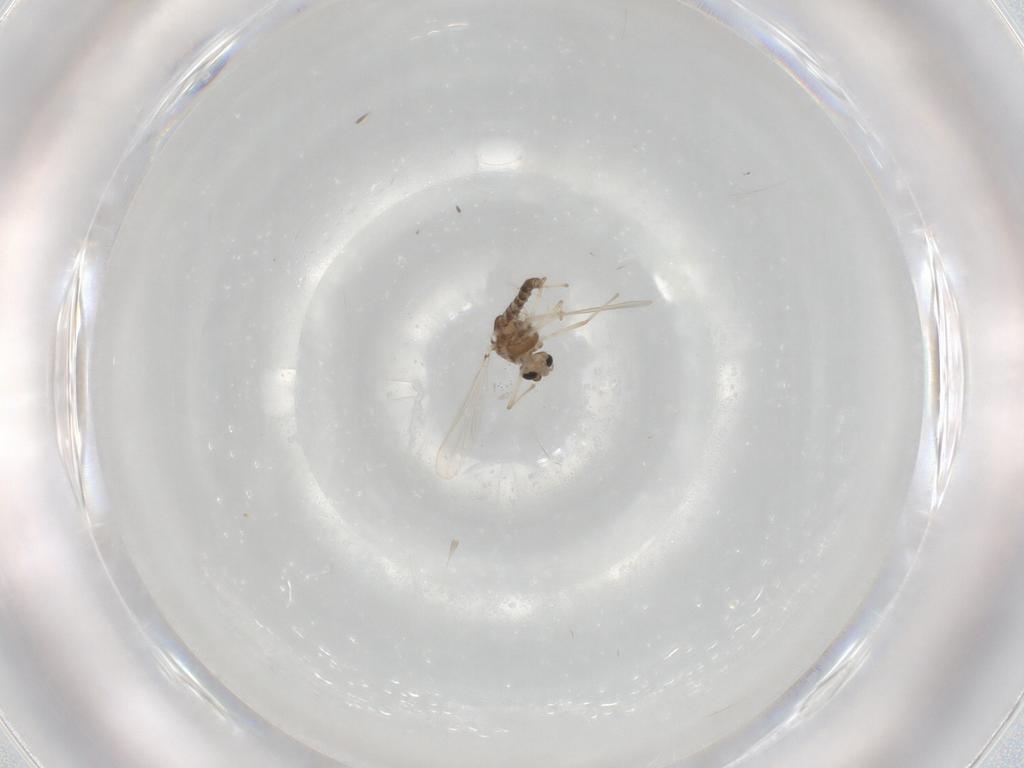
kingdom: Animalia
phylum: Arthropoda
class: Insecta
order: Diptera
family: Chironomidae
